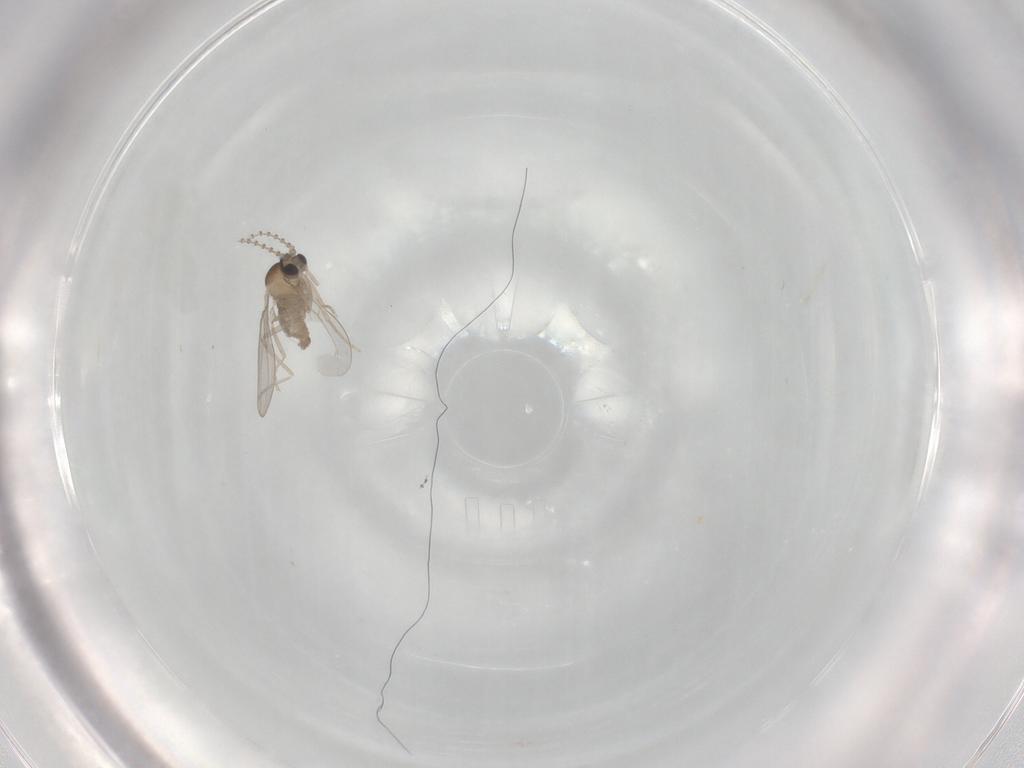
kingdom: Animalia
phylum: Arthropoda
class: Insecta
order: Diptera
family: Cecidomyiidae
